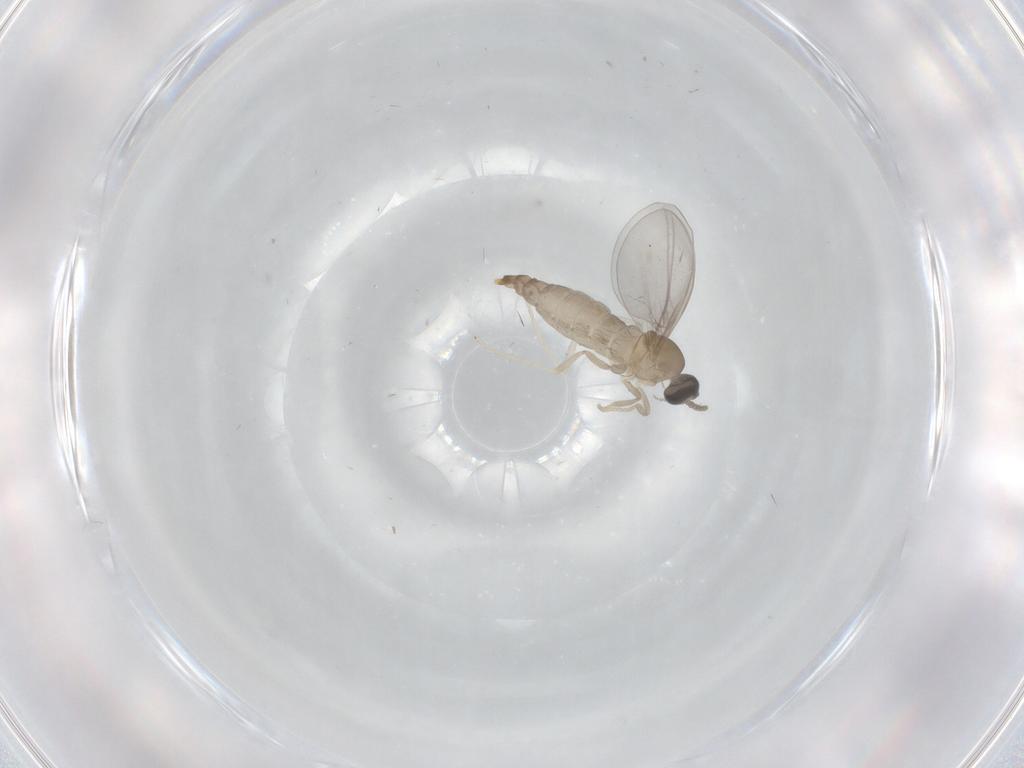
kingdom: Animalia
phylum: Arthropoda
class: Insecta
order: Diptera
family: Cecidomyiidae
